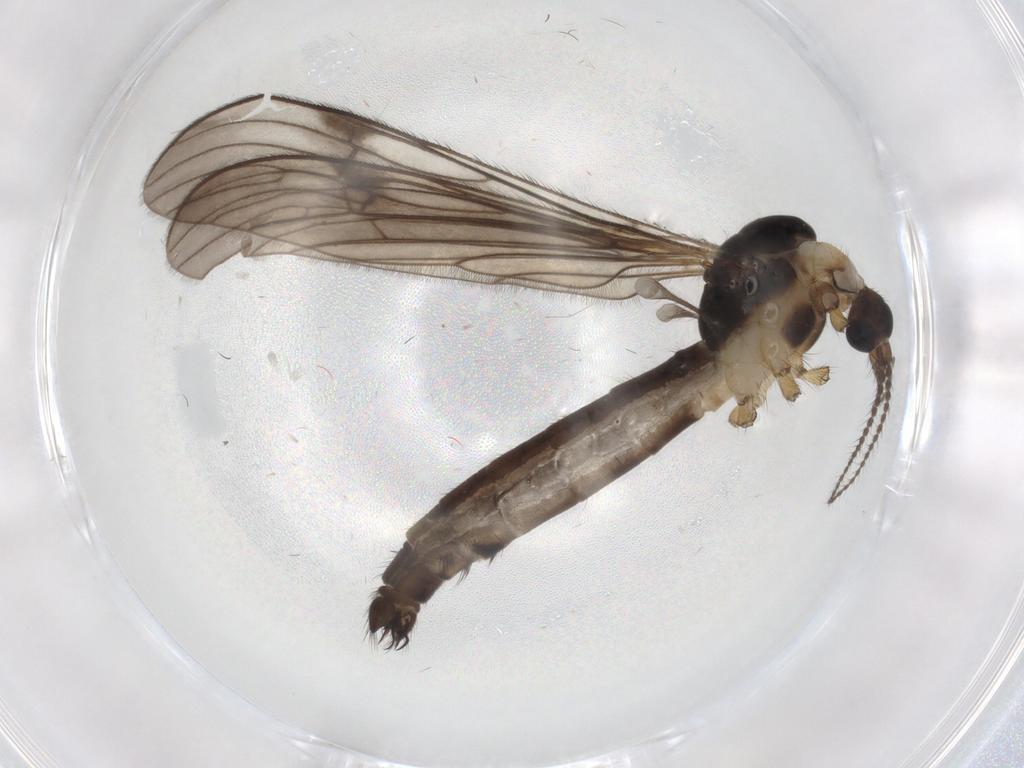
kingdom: Animalia
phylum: Arthropoda
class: Insecta
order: Diptera
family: Limoniidae
